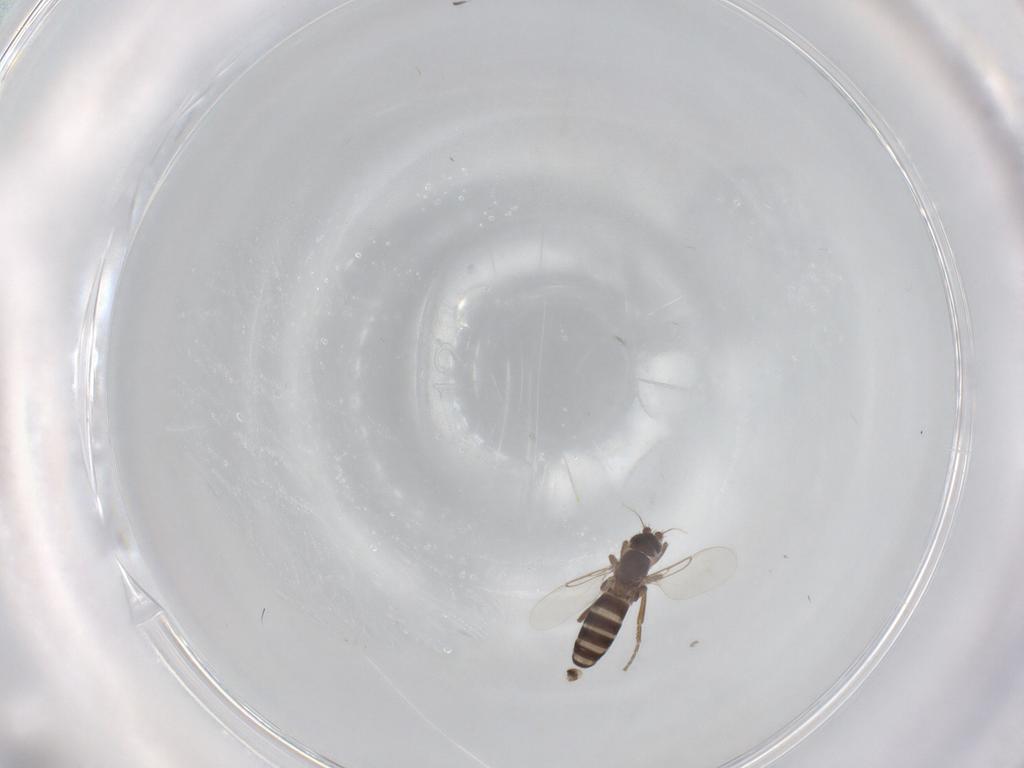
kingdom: Animalia
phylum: Arthropoda
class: Insecta
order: Diptera
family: Phoridae
